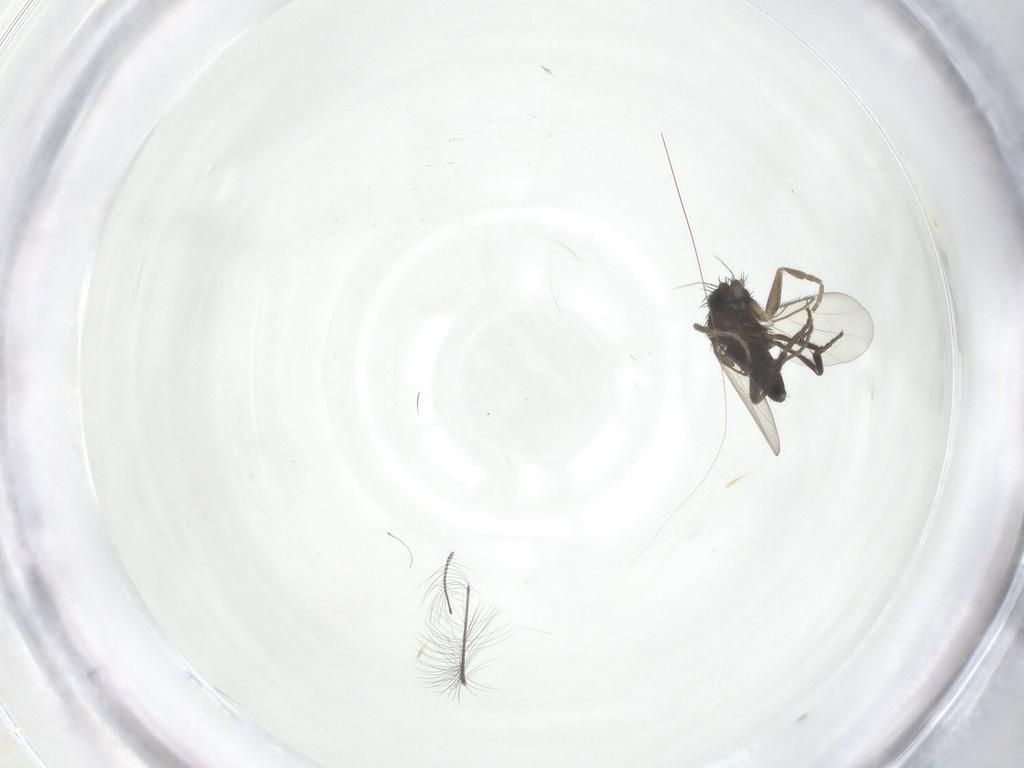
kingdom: Animalia
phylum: Arthropoda
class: Insecta
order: Diptera
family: Phoridae
